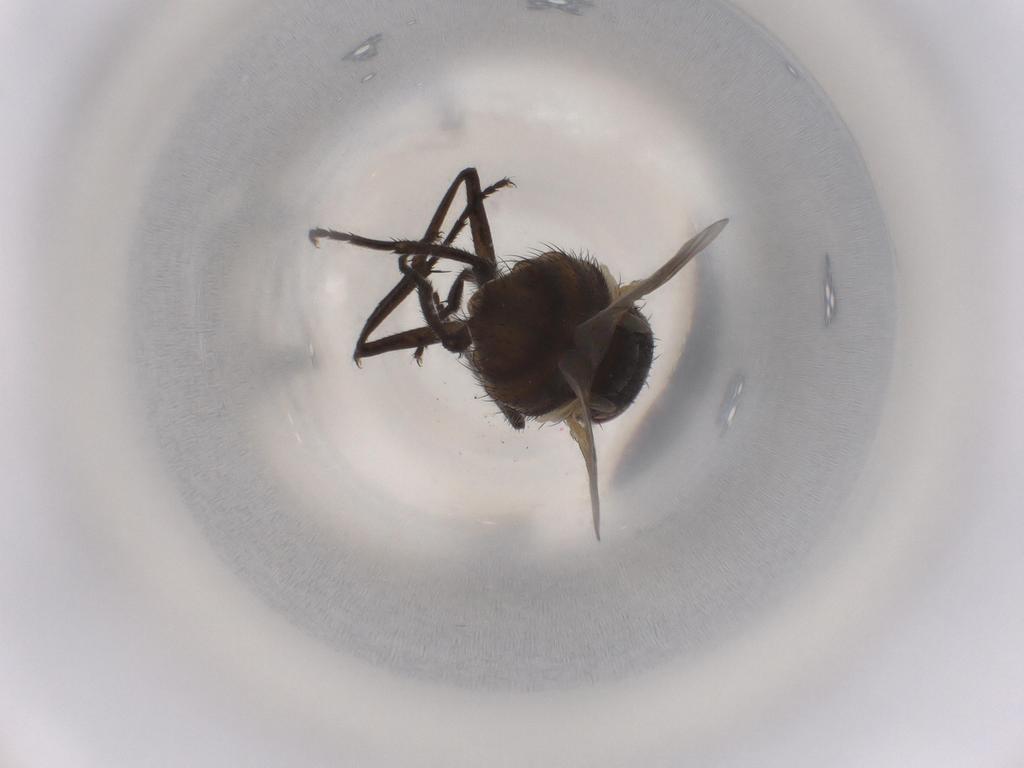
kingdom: Animalia
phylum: Arthropoda
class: Insecta
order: Diptera
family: Muscidae
